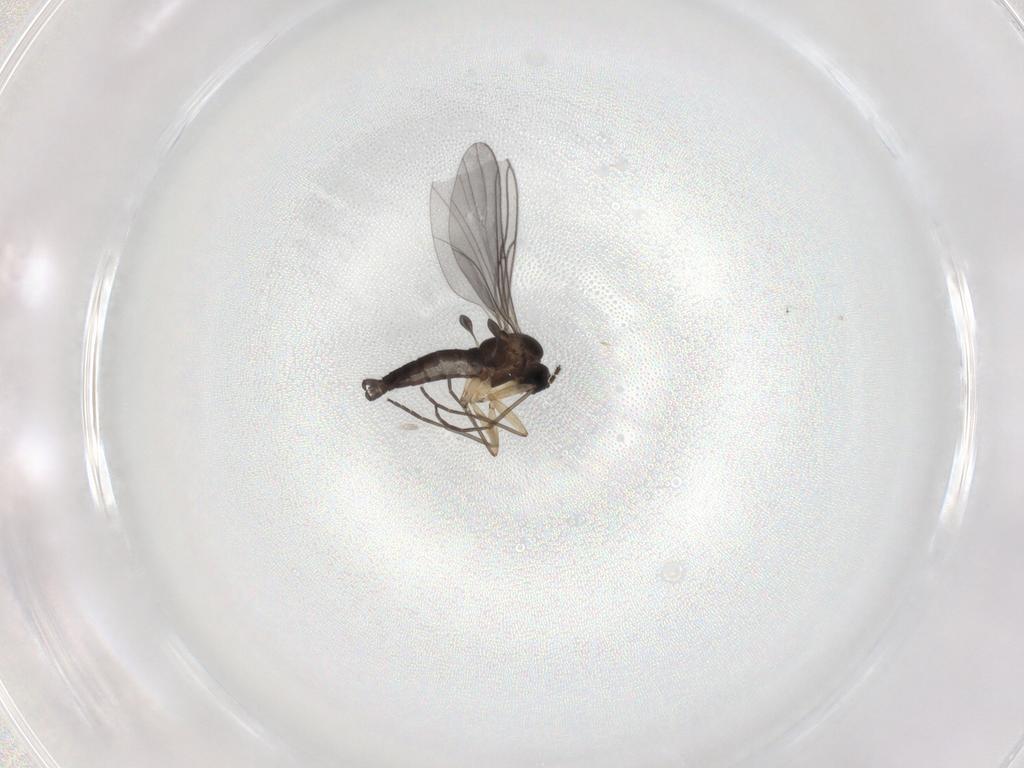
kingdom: Animalia
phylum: Arthropoda
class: Insecta
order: Diptera
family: Sciaridae
